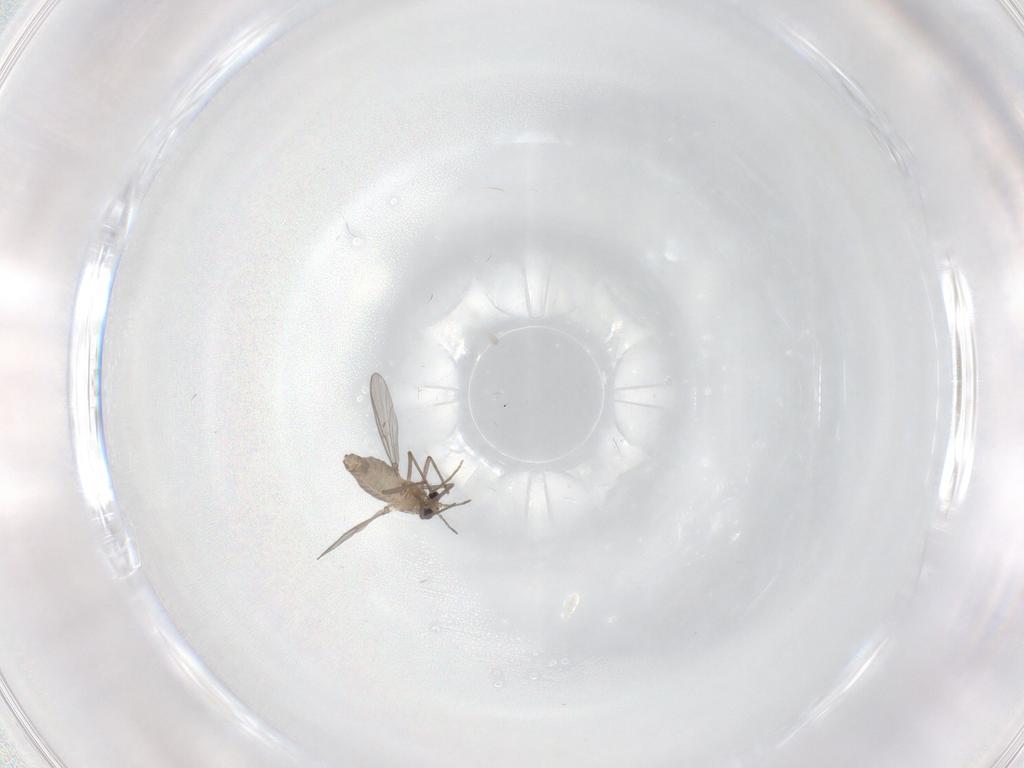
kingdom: Animalia
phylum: Arthropoda
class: Insecta
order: Diptera
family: Chironomidae
